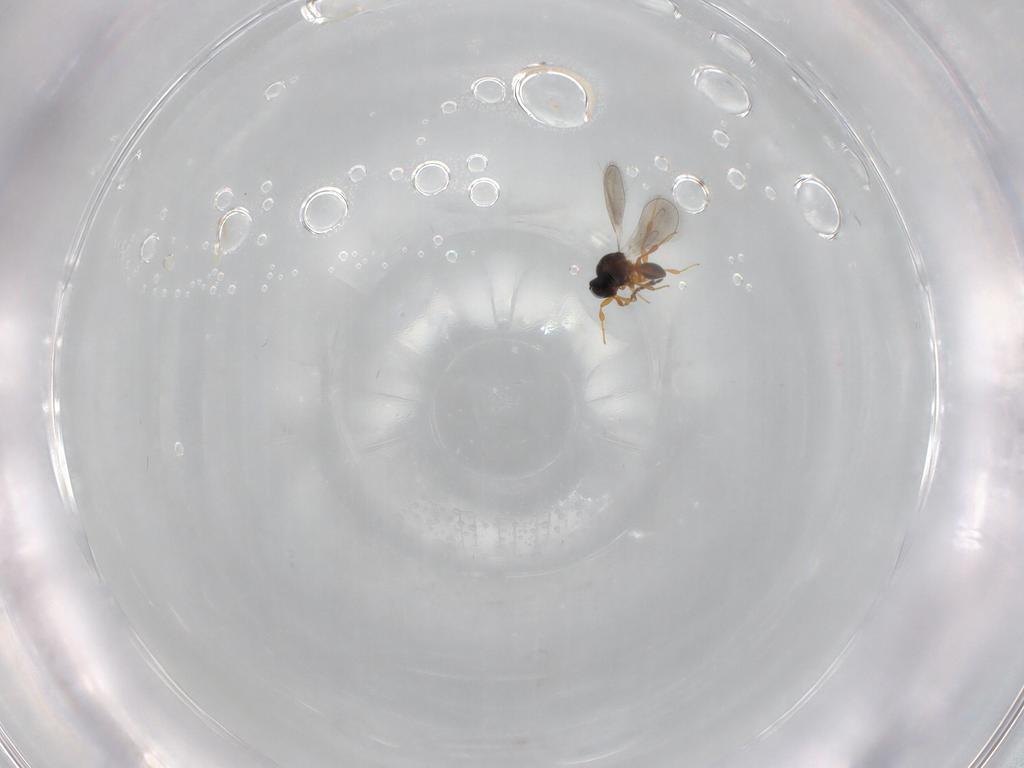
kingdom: Animalia
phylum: Arthropoda
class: Insecta
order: Hymenoptera
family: Platygastridae
